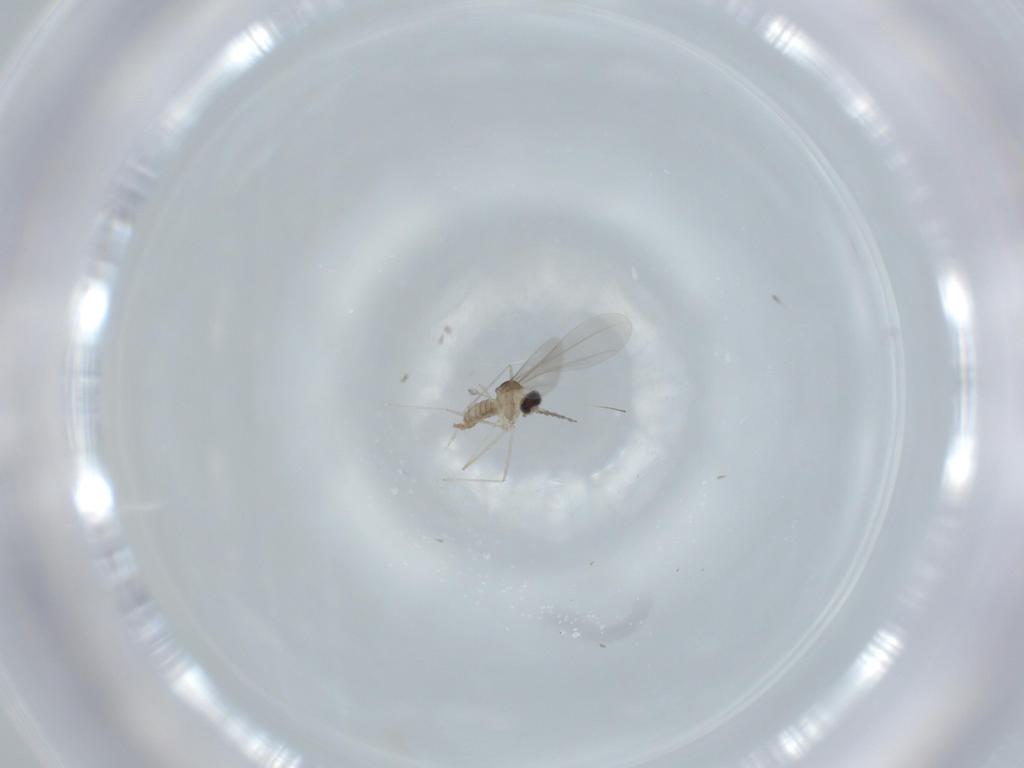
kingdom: Animalia
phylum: Arthropoda
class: Insecta
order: Diptera
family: Chironomidae
